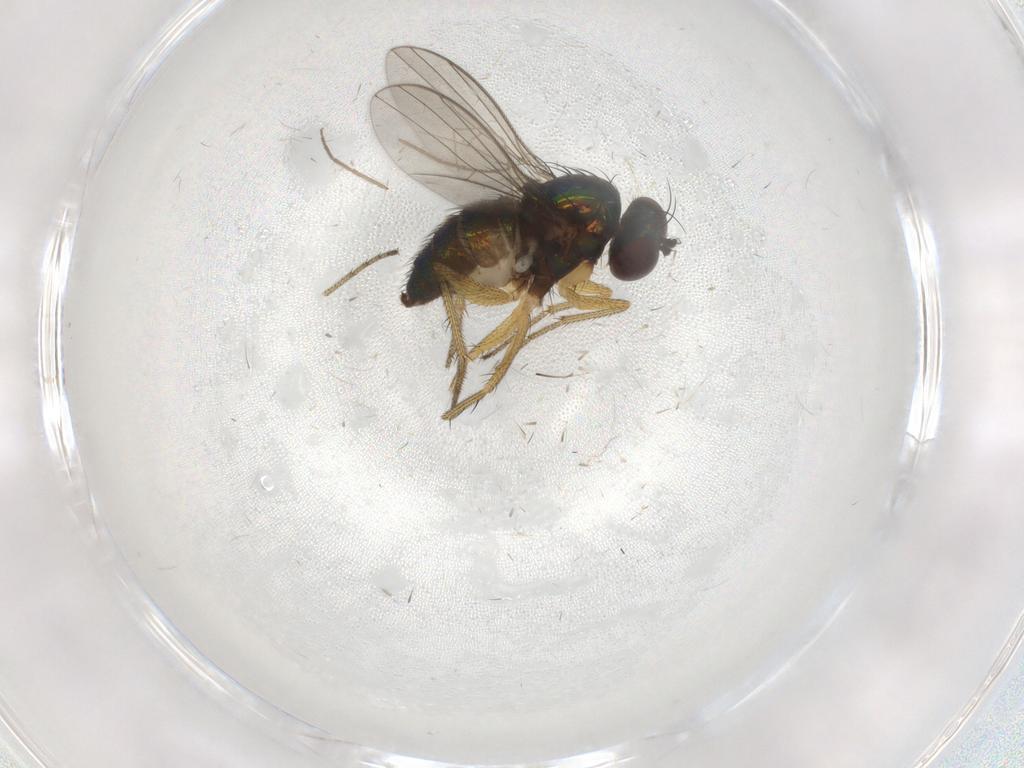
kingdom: Animalia
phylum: Arthropoda
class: Insecta
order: Diptera
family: Dolichopodidae
